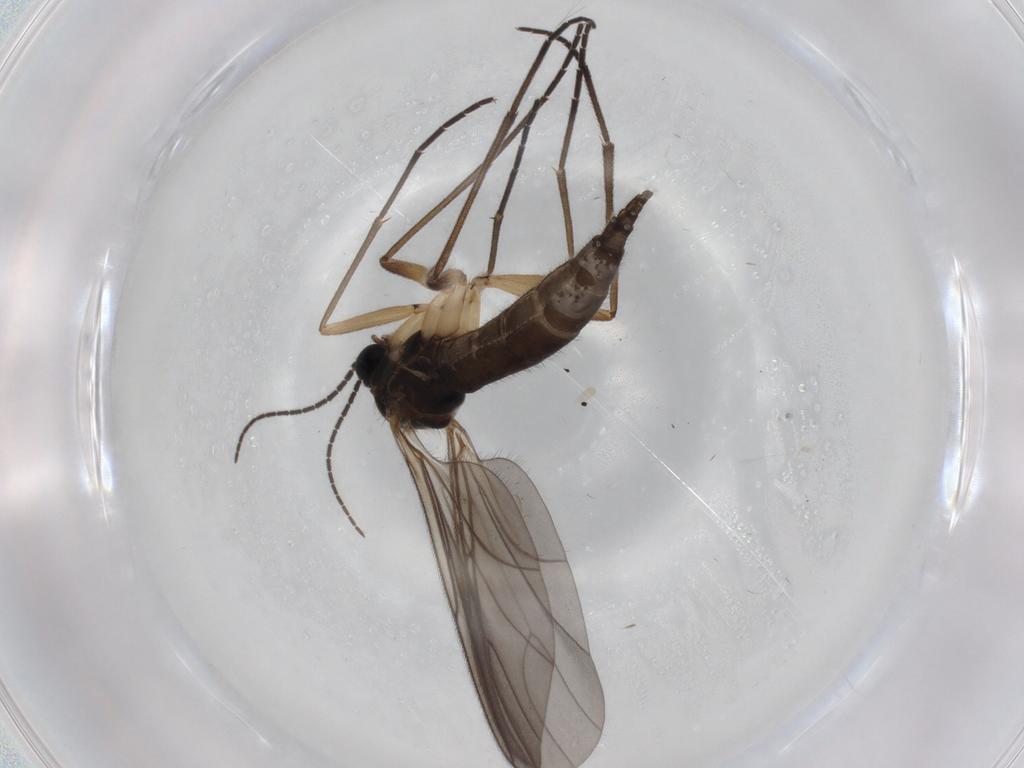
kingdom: Animalia
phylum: Arthropoda
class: Insecta
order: Diptera
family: Sciaridae
